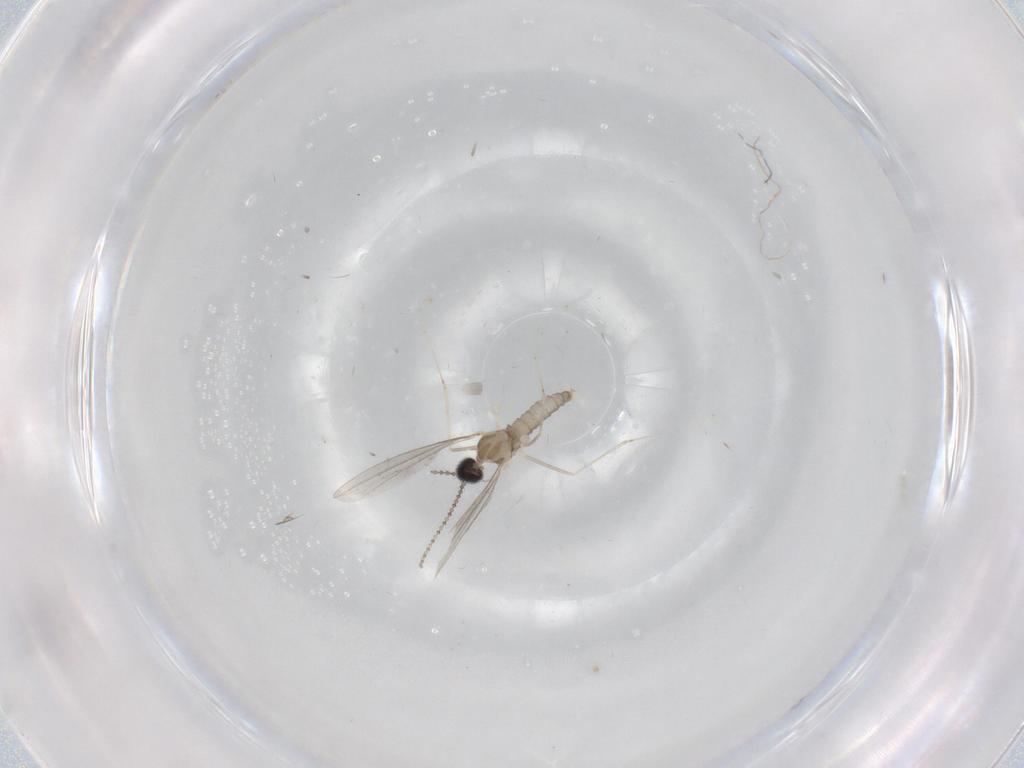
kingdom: Animalia
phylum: Arthropoda
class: Insecta
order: Diptera
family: Cecidomyiidae
